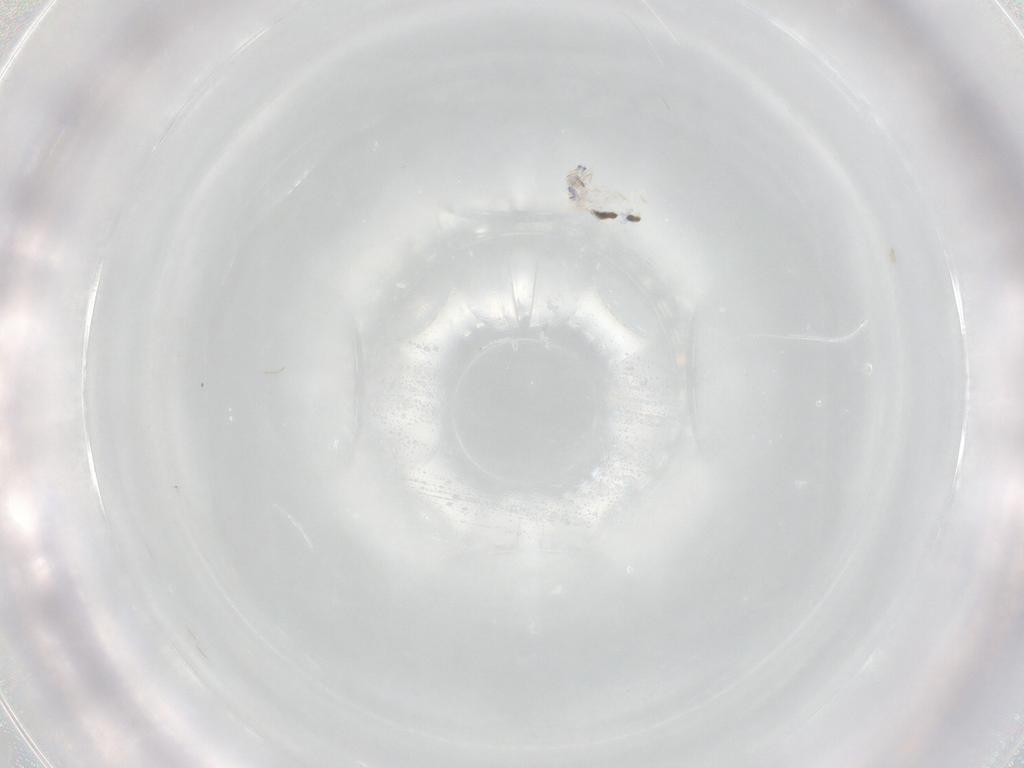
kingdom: Animalia
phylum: Arthropoda
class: Collembola
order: Entomobryomorpha
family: Entomobryidae
